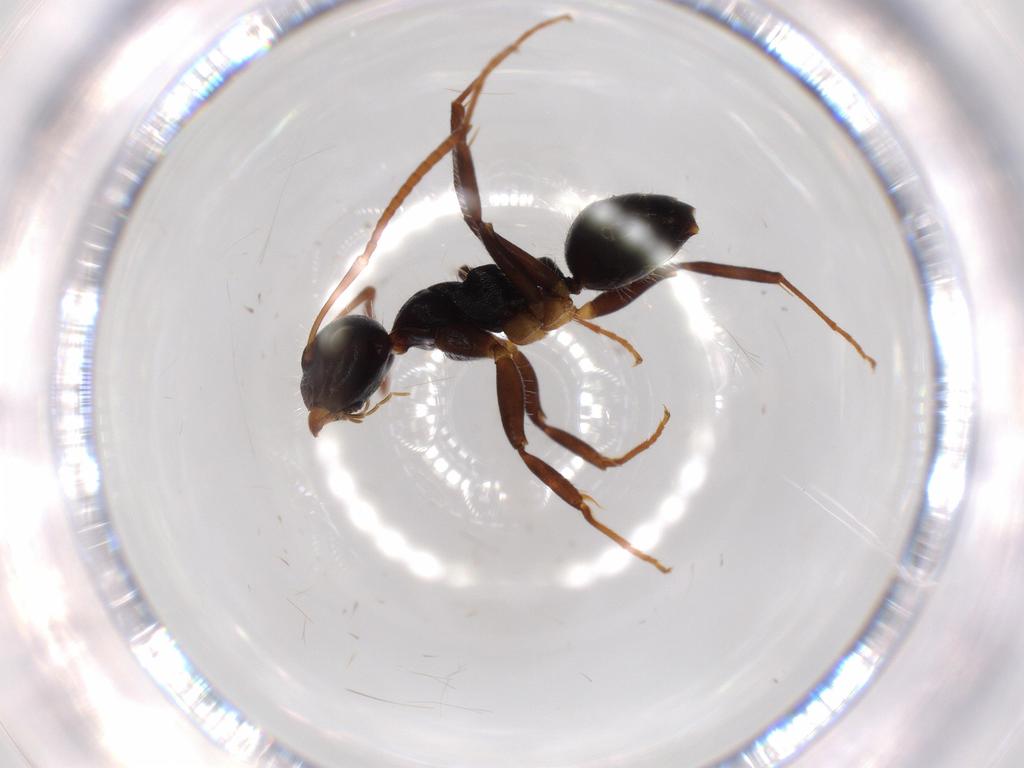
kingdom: Animalia
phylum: Arthropoda
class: Insecta
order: Hymenoptera
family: Formicidae
